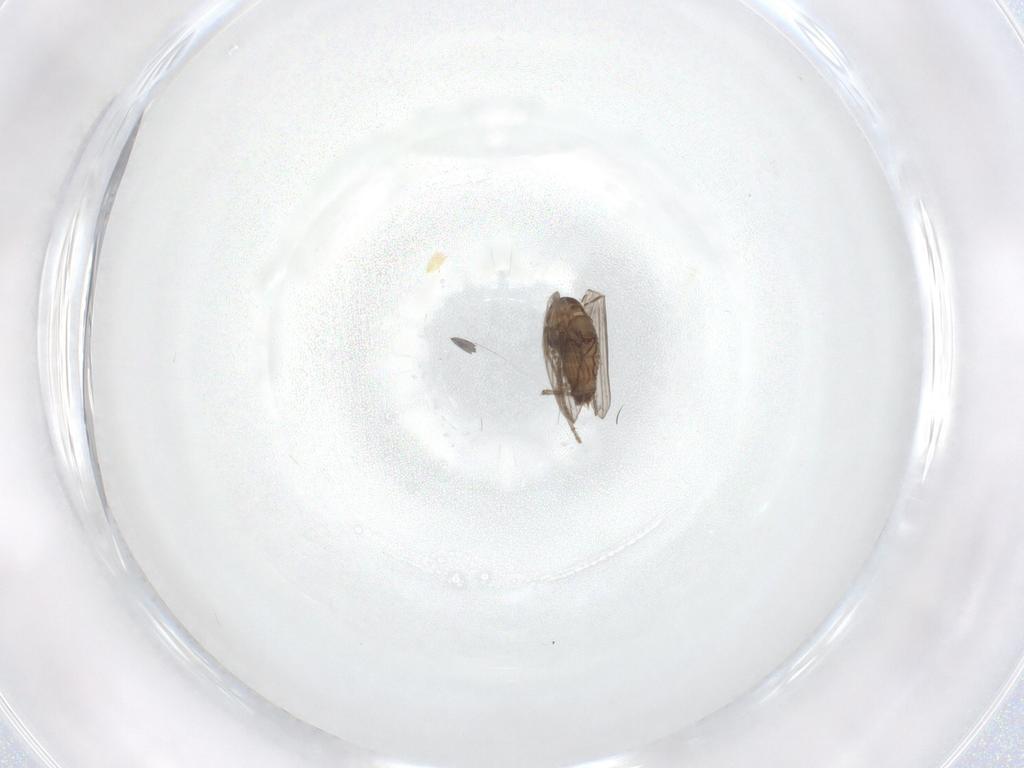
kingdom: Animalia
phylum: Arthropoda
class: Insecta
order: Diptera
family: Psychodidae
